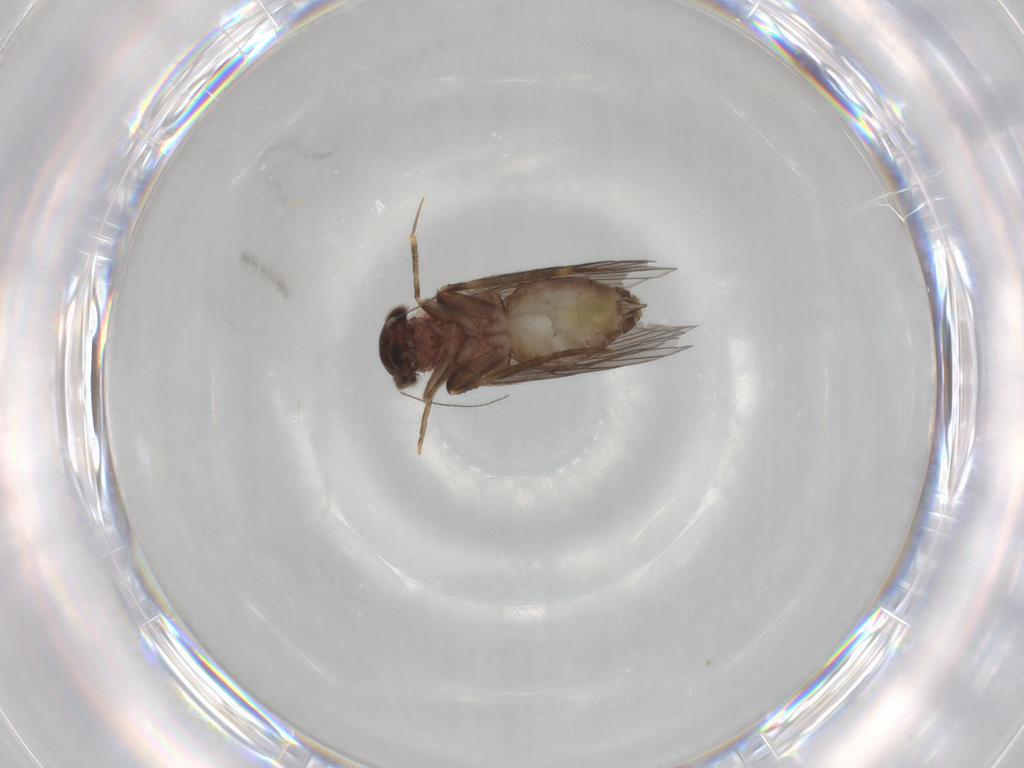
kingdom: Animalia
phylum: Arthropoda
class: Insecta
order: Psocodea
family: Lepidopsocidae
